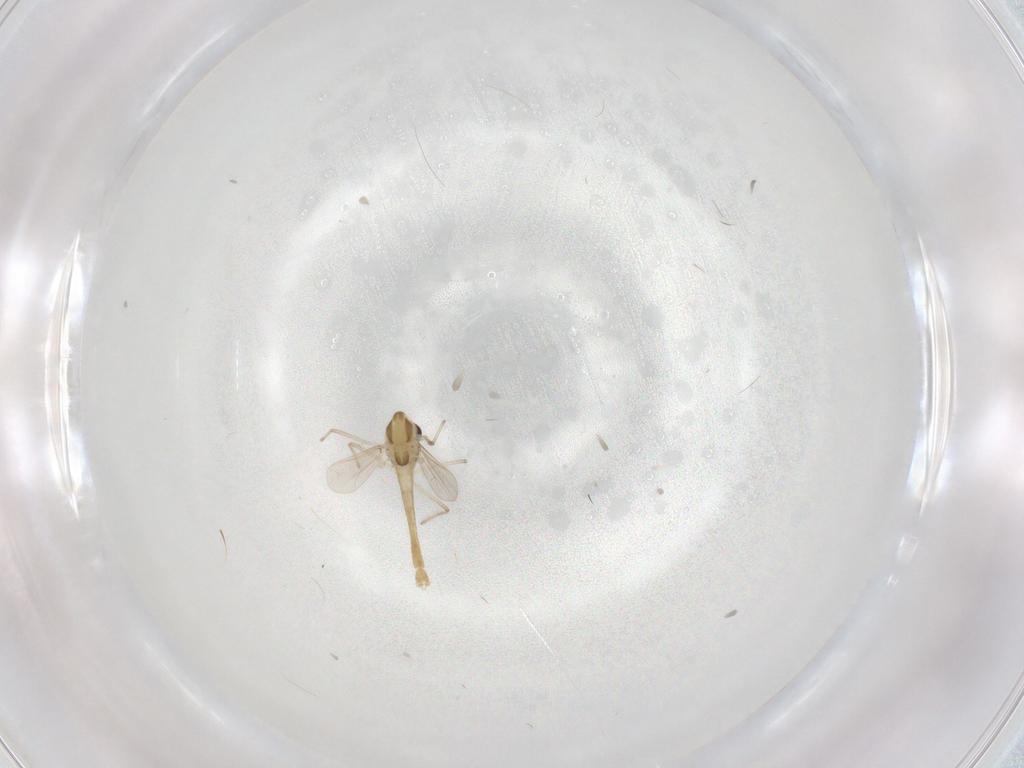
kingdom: Animalia
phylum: Arthropoda
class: Insecta
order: Diptera
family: Chironomidae
